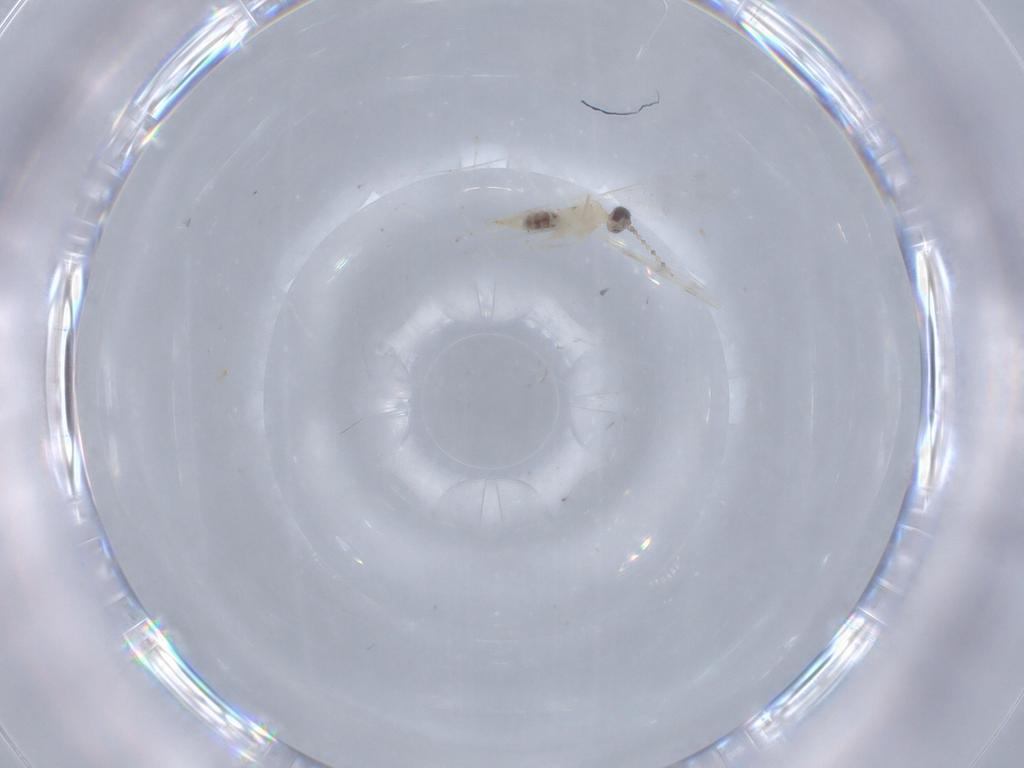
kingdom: Animalia
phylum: Arthropoda
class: Insecta
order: Diptera
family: Cecidomyiidae
